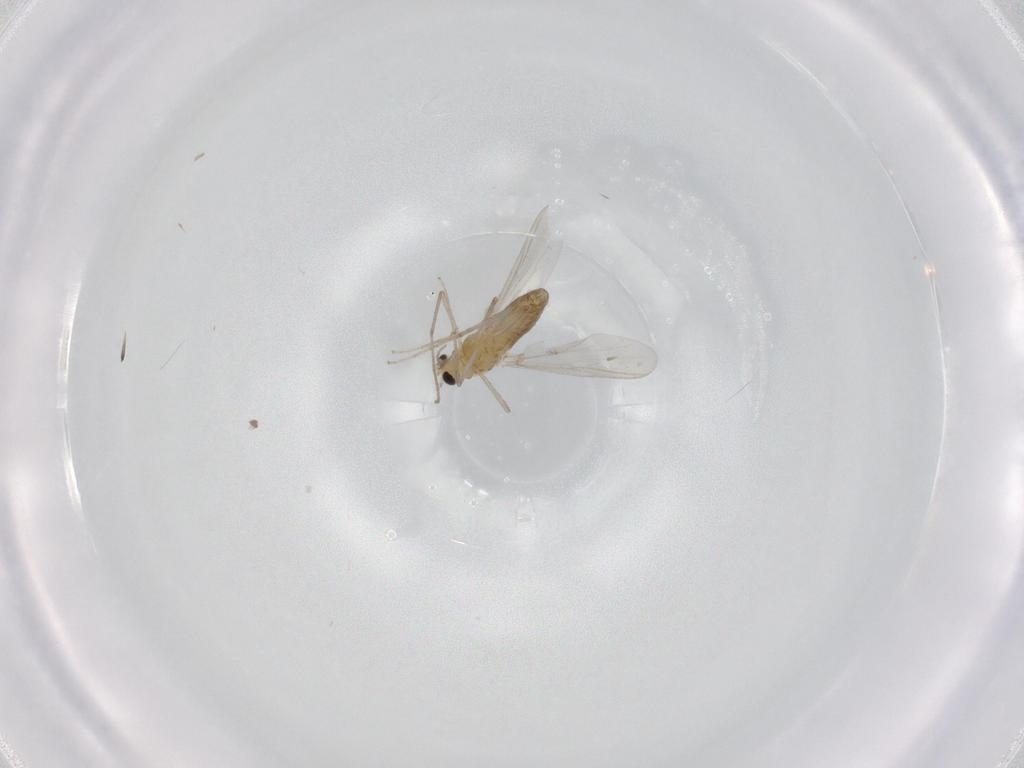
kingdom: Animalia
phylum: Arthropoda
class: Insecta
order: Diptera
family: Chironomidae
